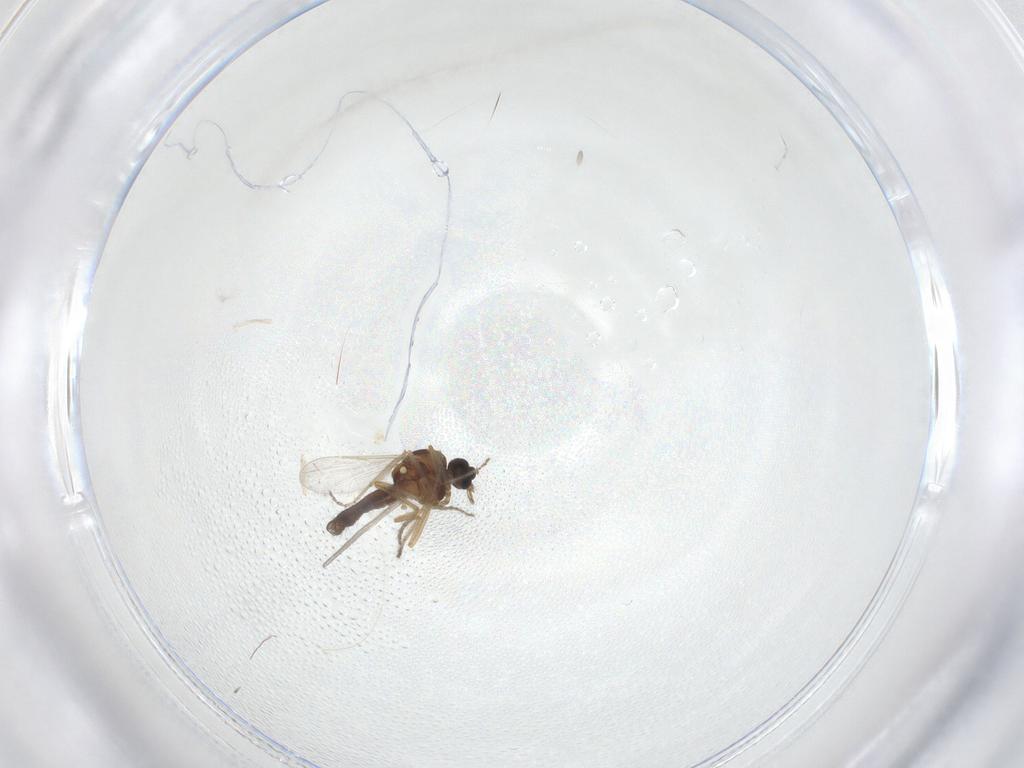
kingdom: Animalia
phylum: Arthropoda
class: Insecta
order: Diptera
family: Ceratopogonidae
